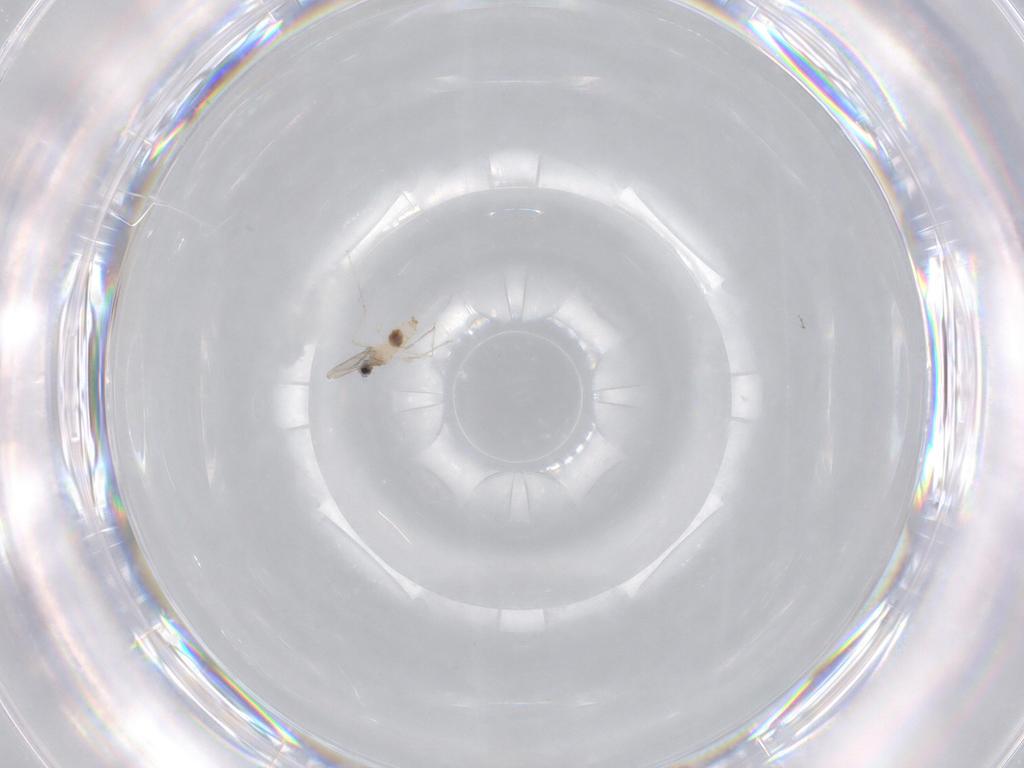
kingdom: Animalia
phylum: Arthropoda
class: Insecta
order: Diptera
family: Cecidomyiidae
